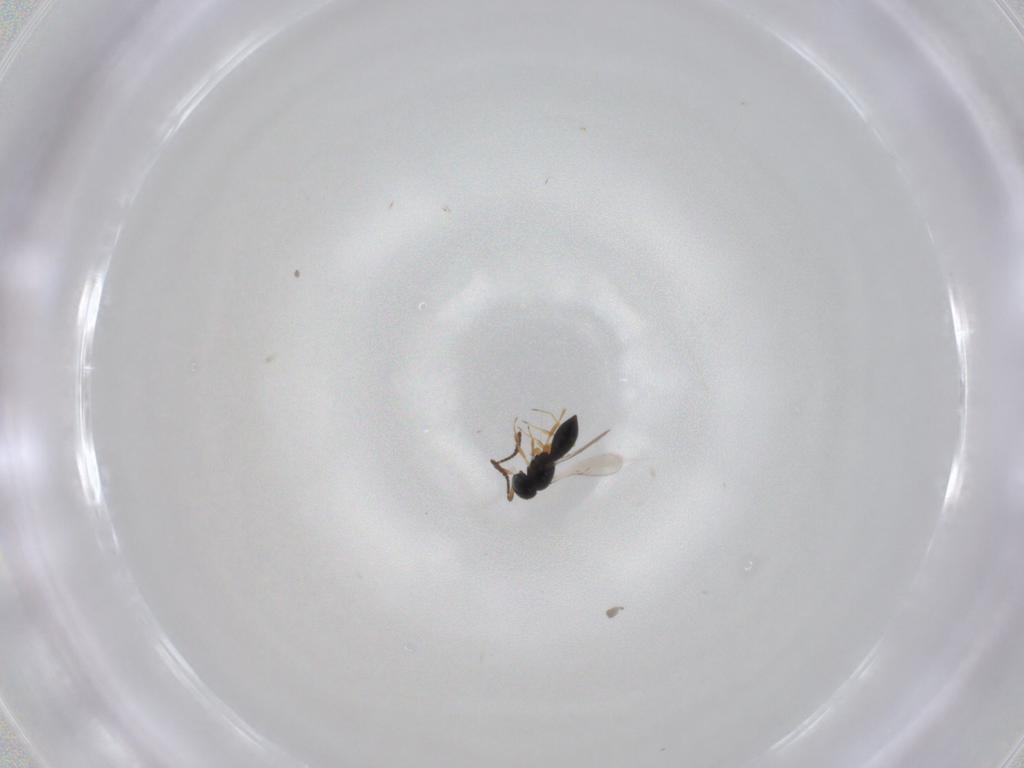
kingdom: Animalia
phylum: Arthropoda
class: Insecta
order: Hymenoptera
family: Scelionidae
